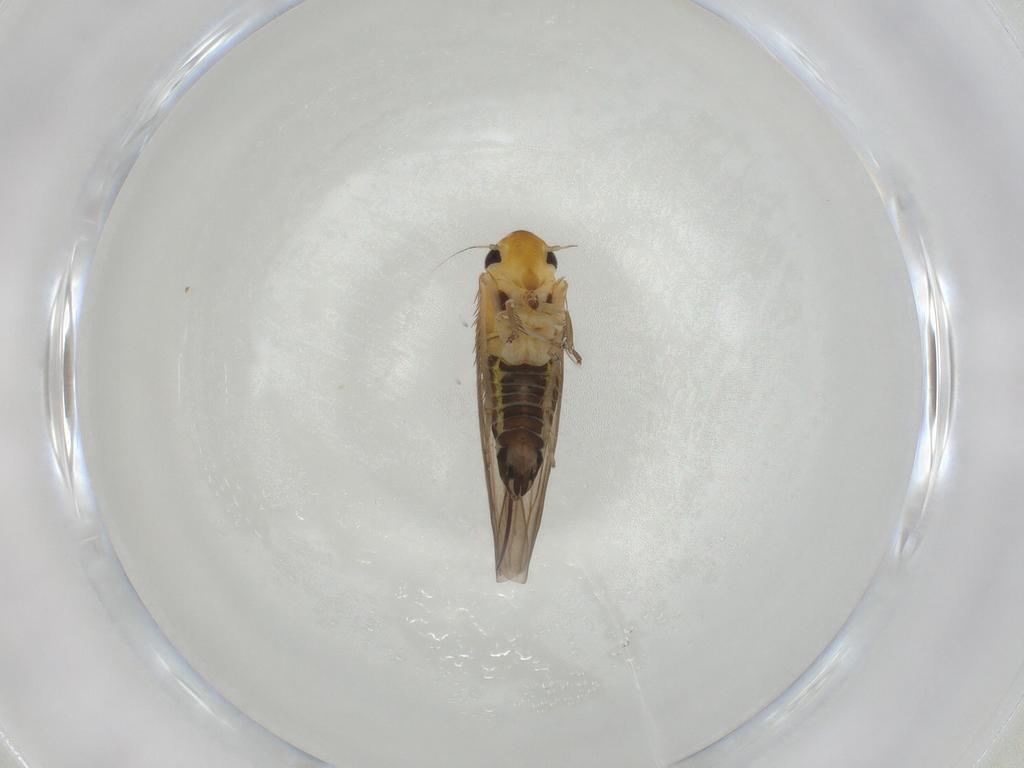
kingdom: Animalia
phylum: Arthropoda
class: Insecta
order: Hemiptera
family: Cicadellidae
